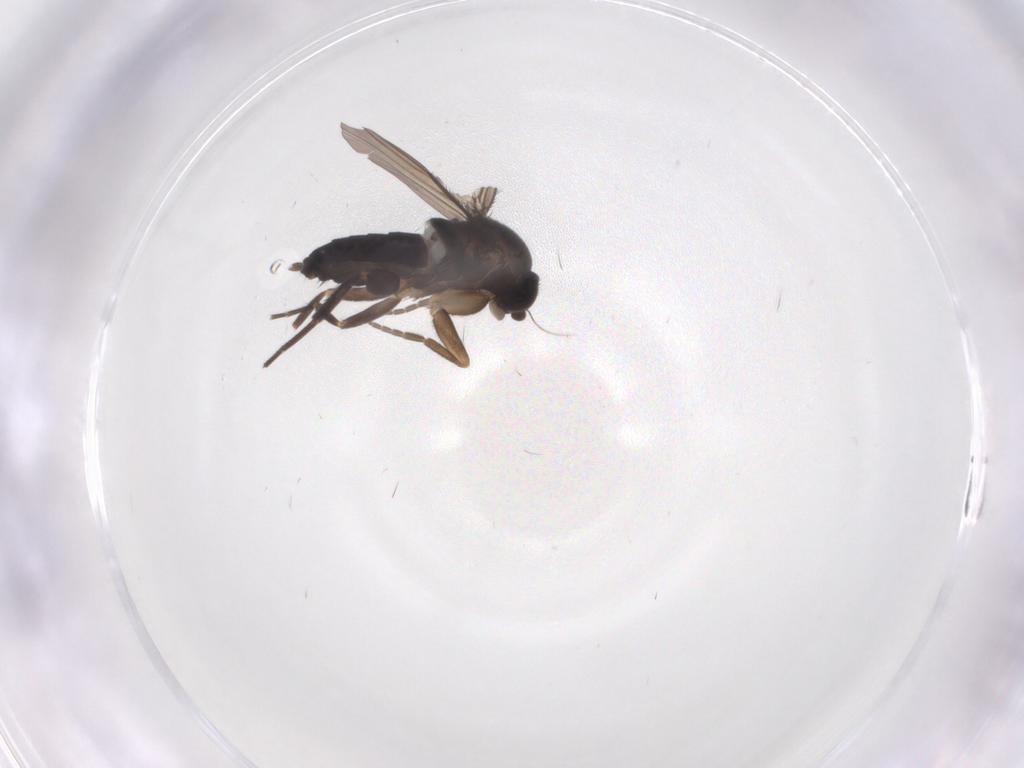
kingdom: Animalia
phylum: Arthropoda
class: Insecta
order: Diptera
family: Phoridae
